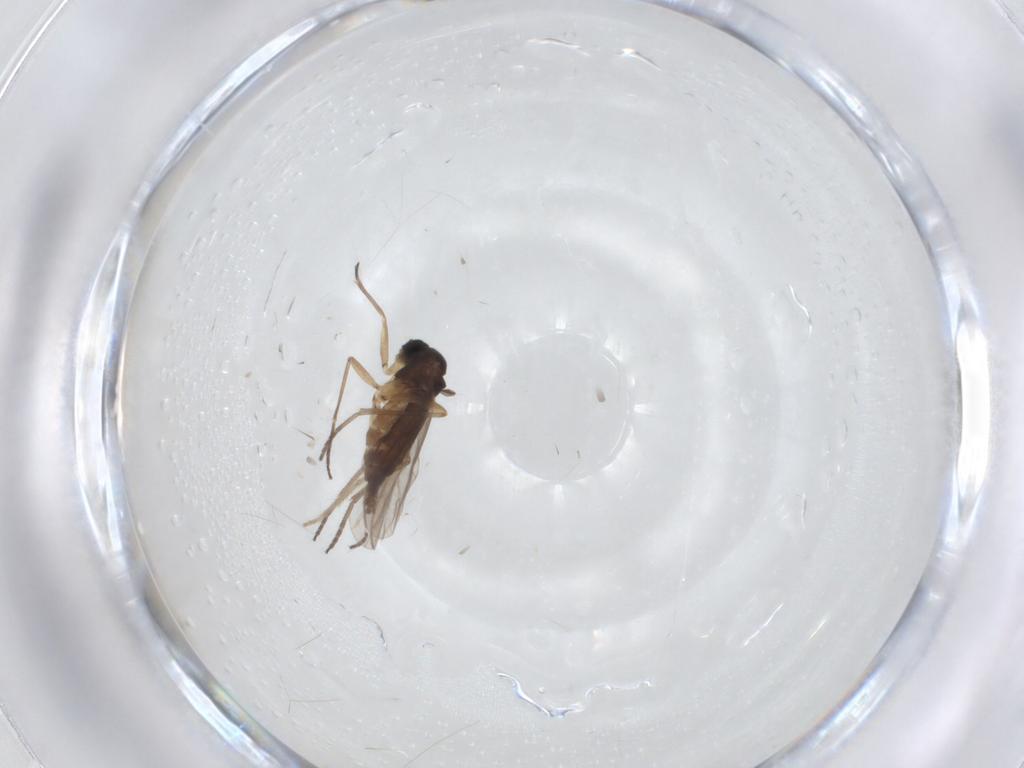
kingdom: Animalia
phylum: Arthropoda
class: Insecta
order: Diptera
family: Sciaridae
